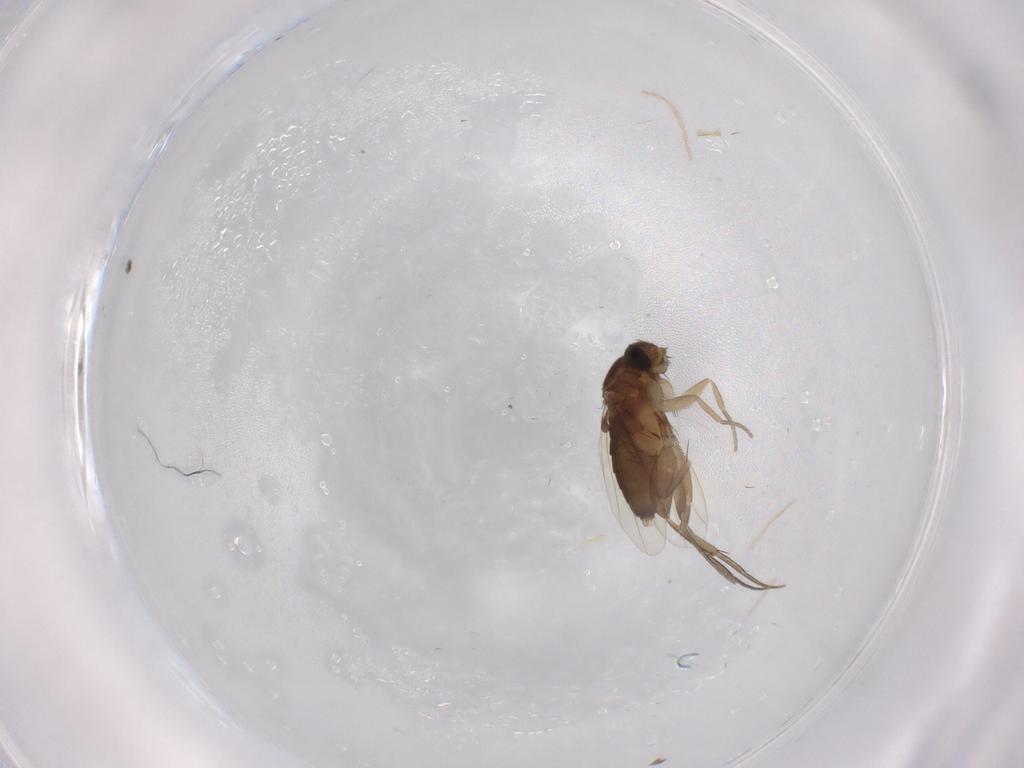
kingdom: Animalia
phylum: Arthropoda
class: Insecta
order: Diptera
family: Phoridae
